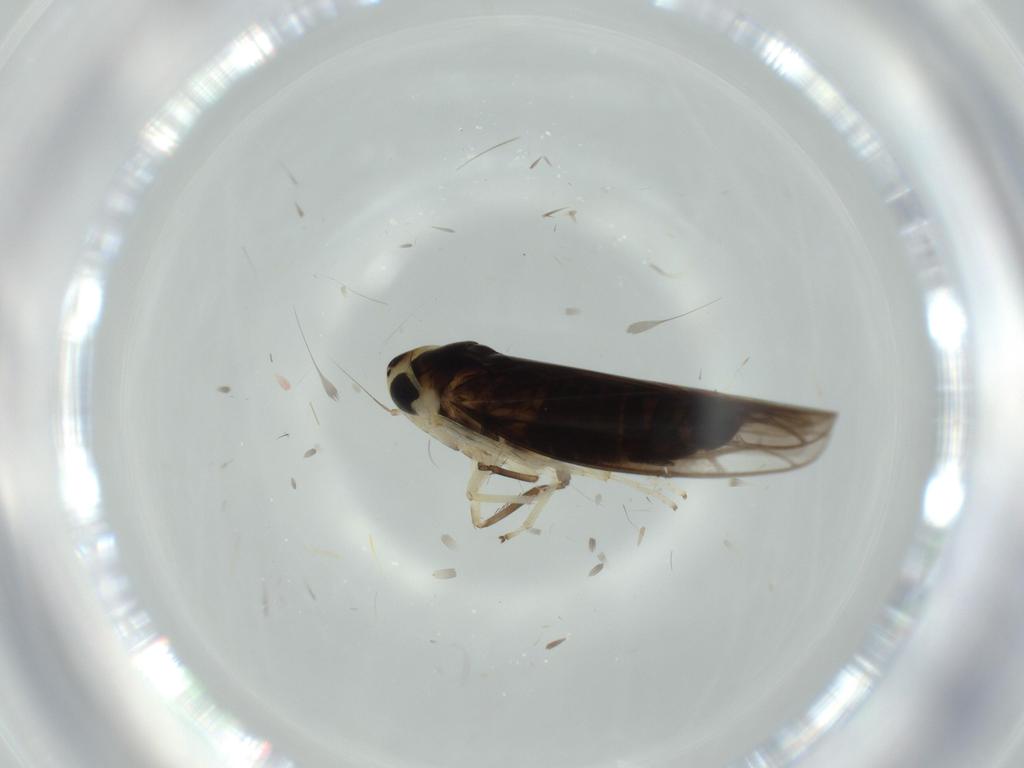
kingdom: Animalia
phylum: Arthropoda
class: Insecta
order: Hemiptera
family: Cicadellidae
